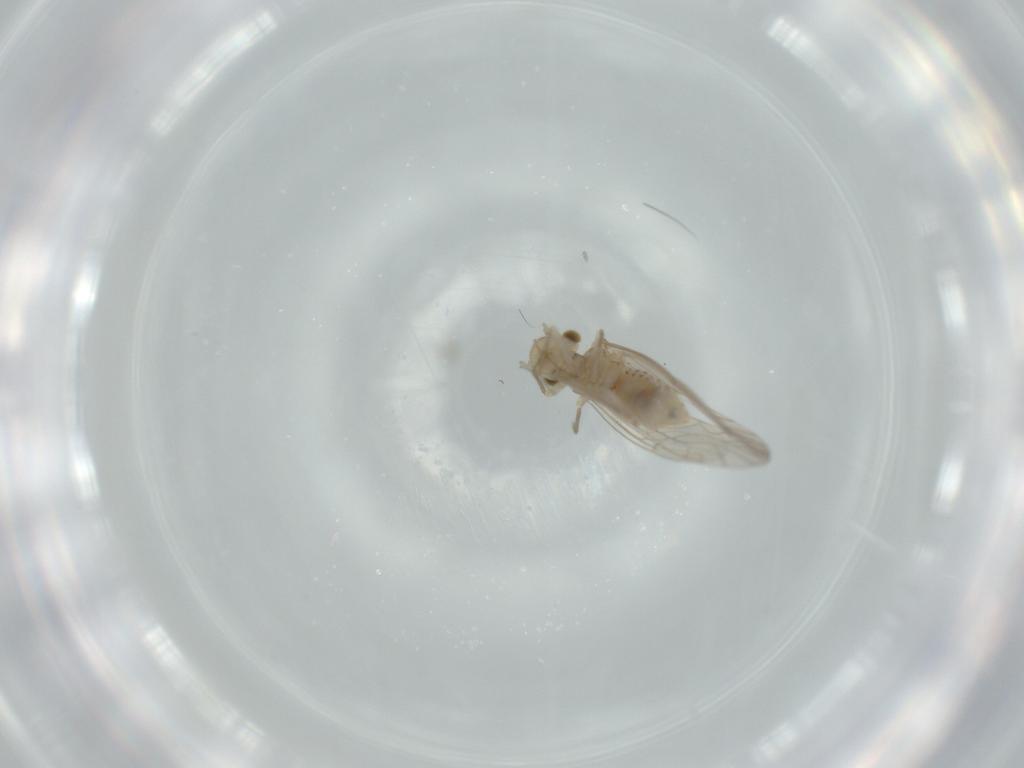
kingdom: Animalia
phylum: Arthropoda
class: Insecta
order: Psocodea
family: Lachesillidae
